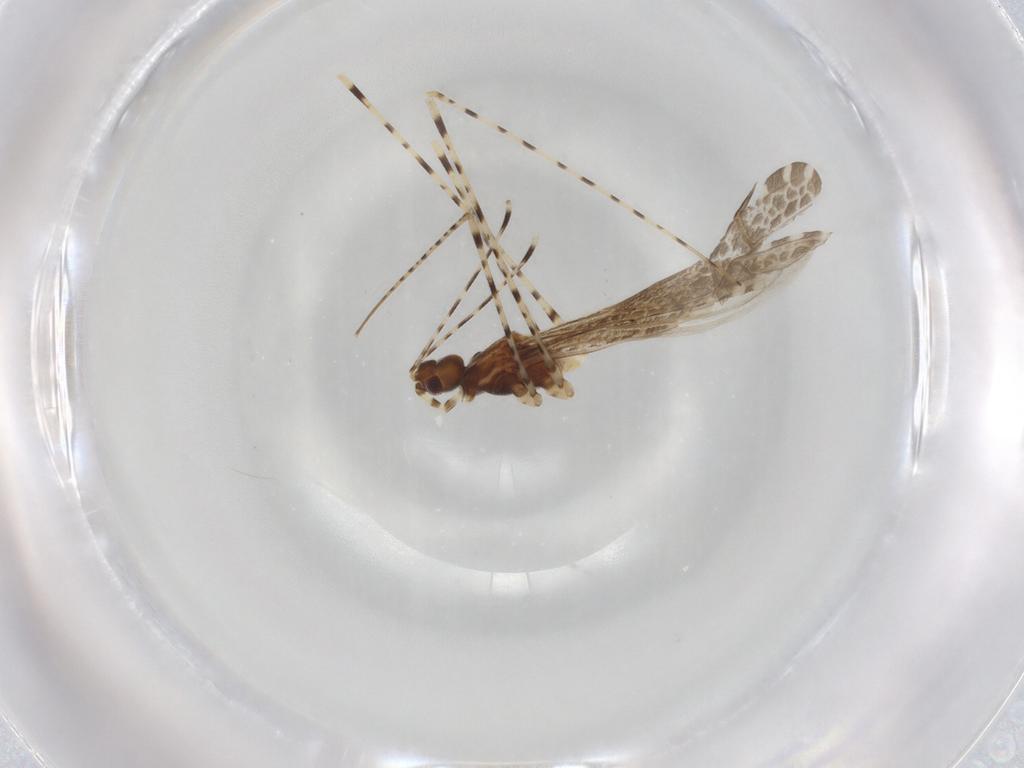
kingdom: Animalia
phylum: Arthropoda
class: Insecta
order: Hemiptera
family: Reduviidae
